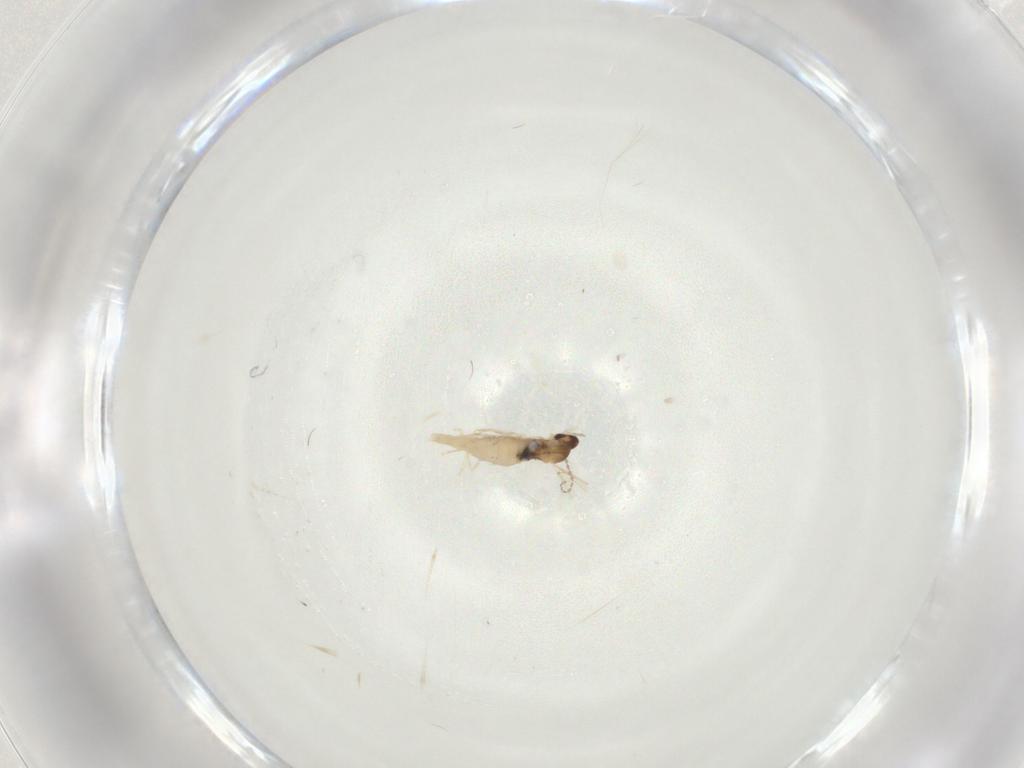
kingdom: Animalia
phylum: Arthropoda
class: Insecta
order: Diptera
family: Cecidomyiidae
